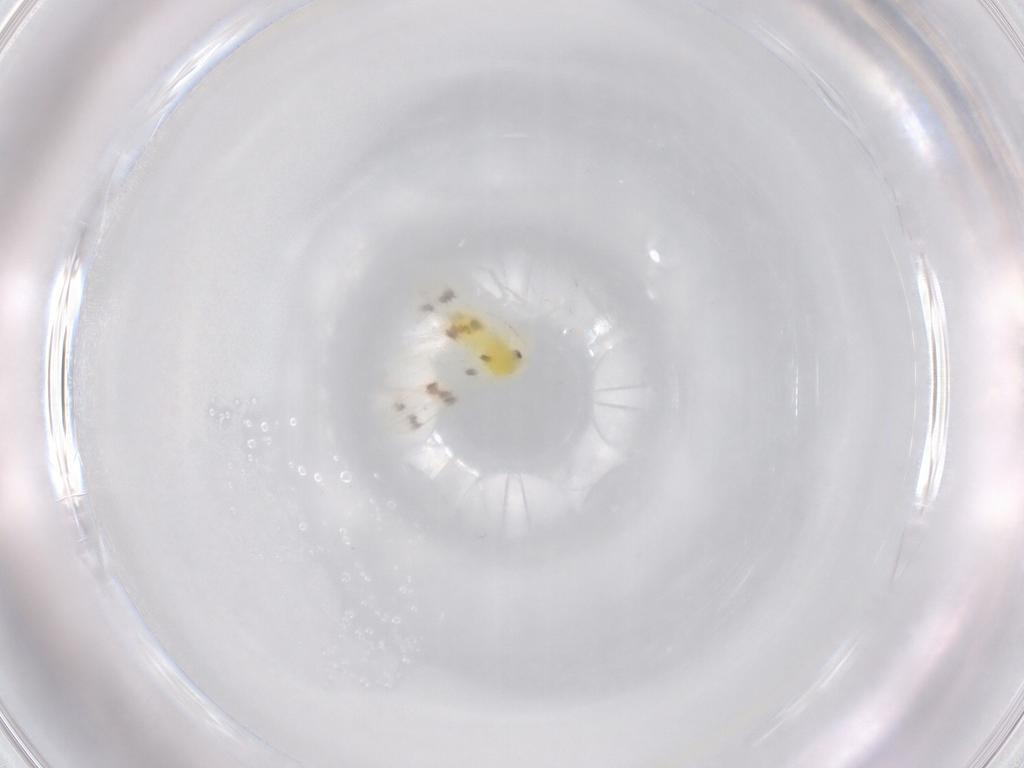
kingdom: Animalia
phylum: Arthropoda
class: Insecta
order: Hemiptera
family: Aleyrodidae
